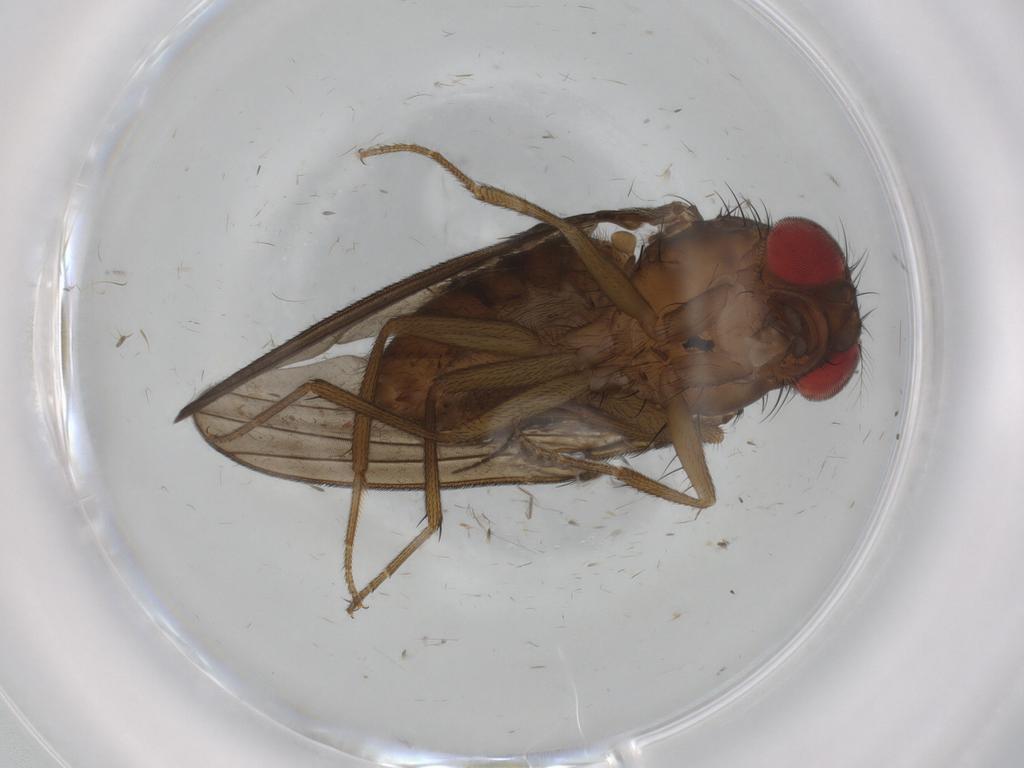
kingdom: Animalia
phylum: Arthropoda
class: Insecta
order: Diptera
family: Drosophilidae
